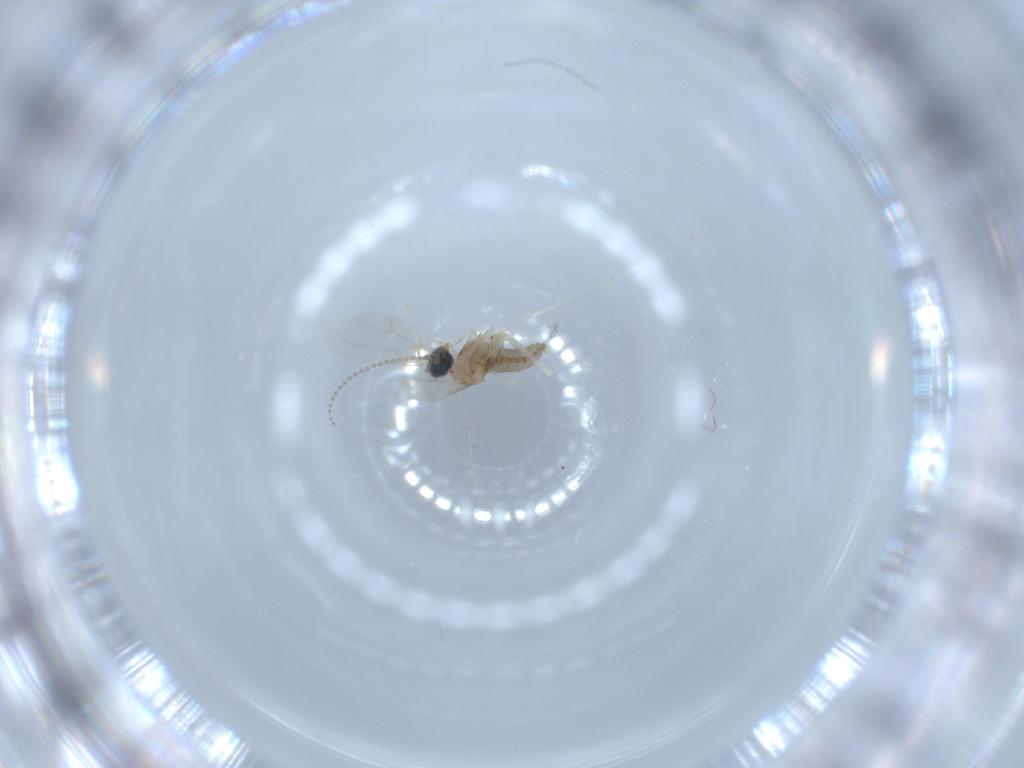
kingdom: Animalia
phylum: Arthropoda
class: Insecta
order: Diptera
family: Cecidomyiidae
